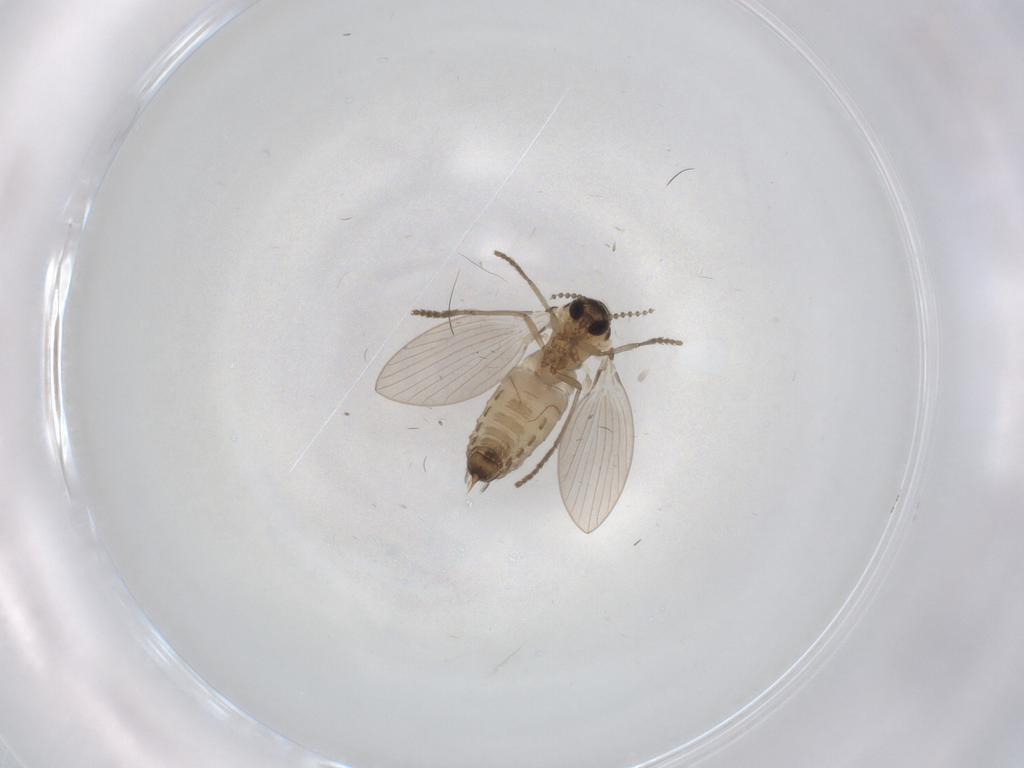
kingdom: Animalia
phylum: Arthropoda
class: Insecta
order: Diptera
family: Psychodidae
